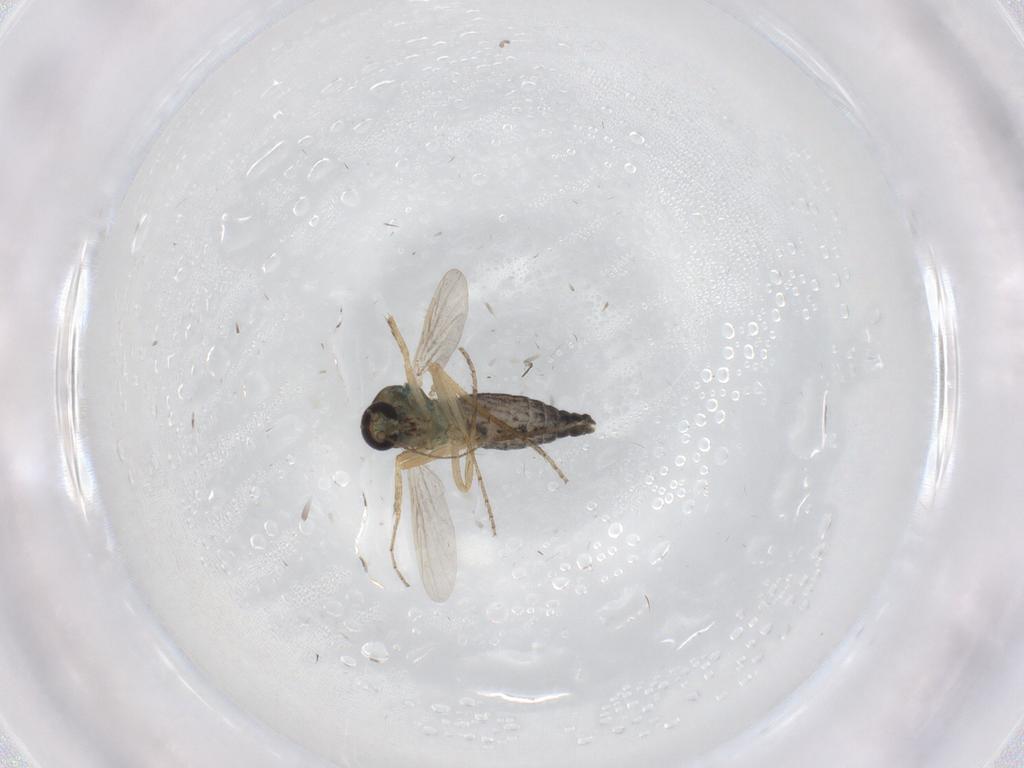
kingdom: Animalia
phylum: Arthropoda
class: Insecta
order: Diptera
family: Ceratopogonidae
